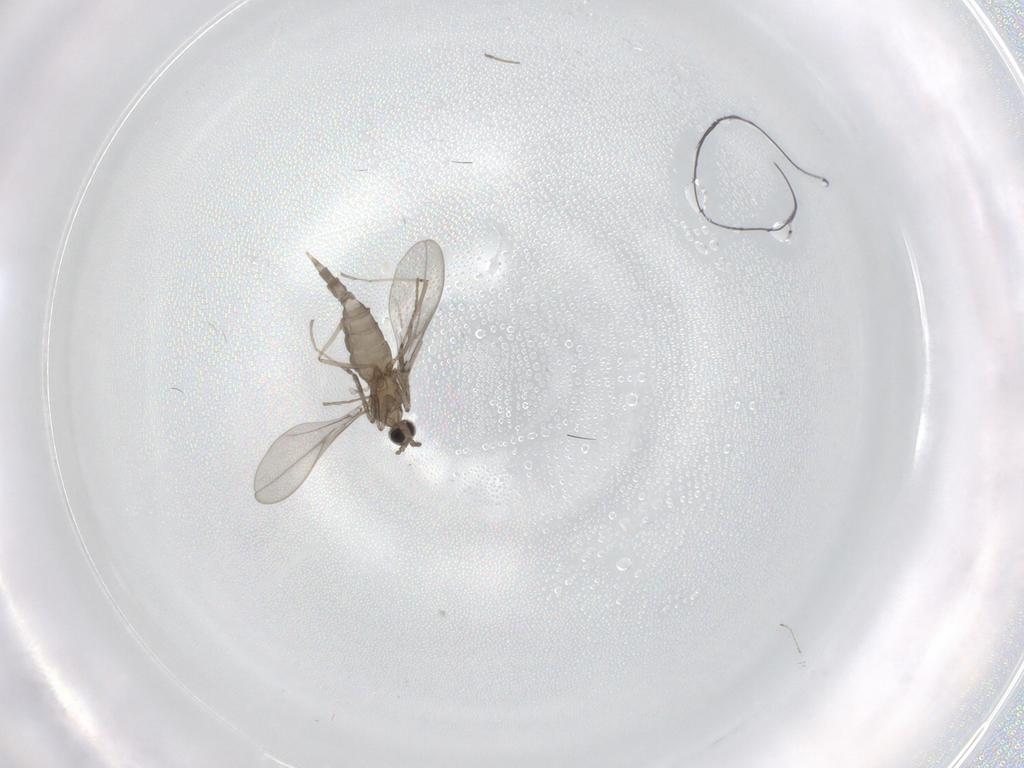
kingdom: Animalia
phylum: Arthropoda
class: Insecta
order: Diptera
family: Cecidomyiidae
